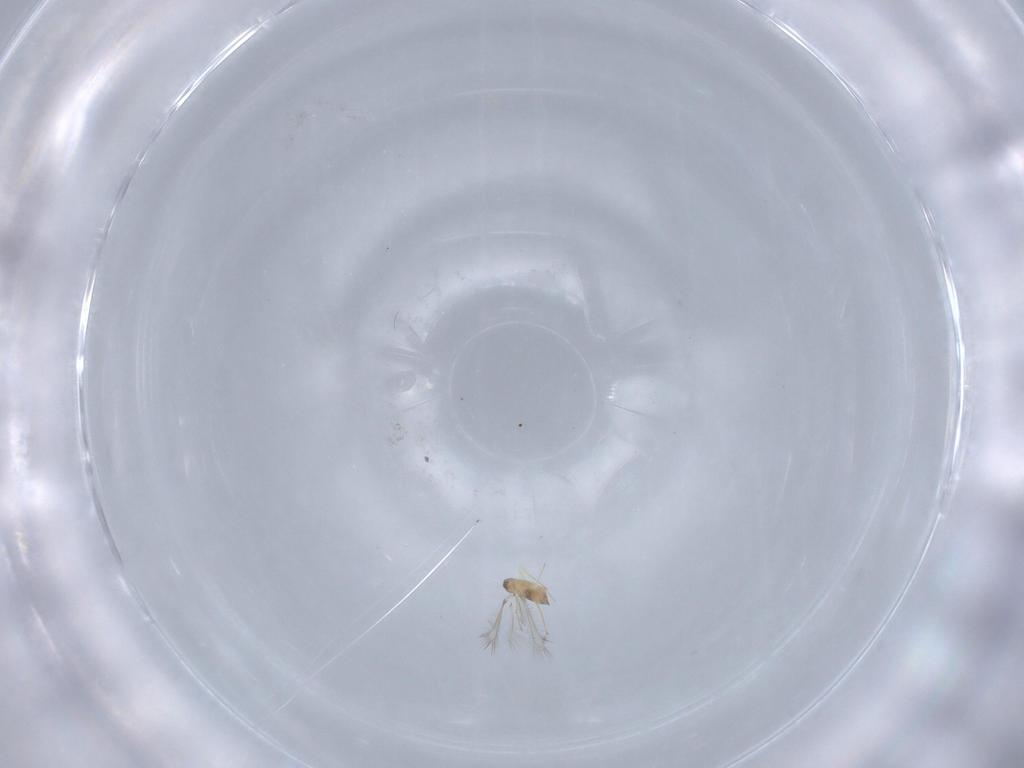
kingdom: Animalia
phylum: Arthropoda
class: Insecta
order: Hymenoptera
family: Mymaridae
